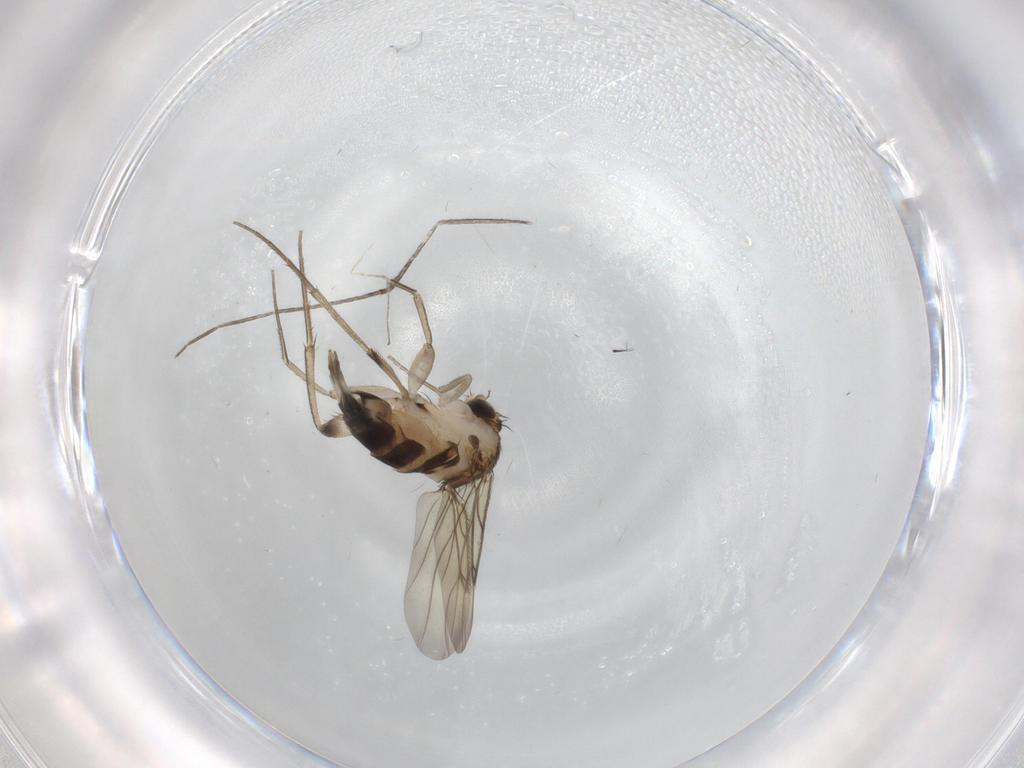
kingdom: Animalia
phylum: Arthropoda
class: Insecta
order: Diptera
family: Phoridae
